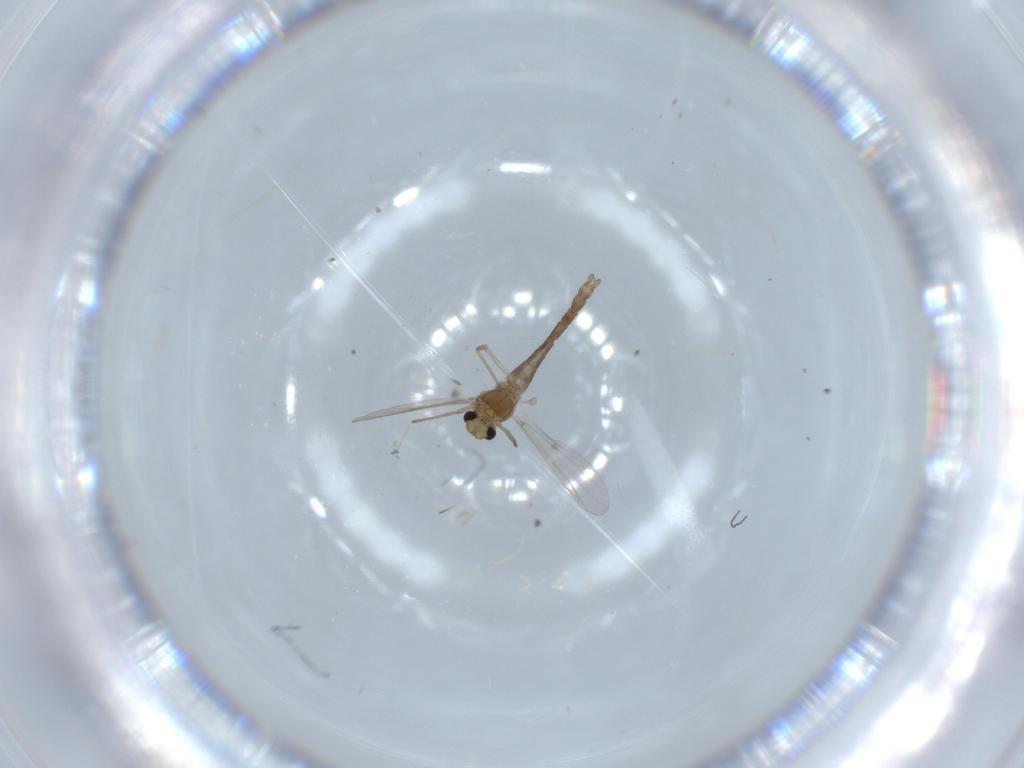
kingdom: Animalia
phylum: Arthropoda
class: Insecta
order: Diptera
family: Chironomidae
